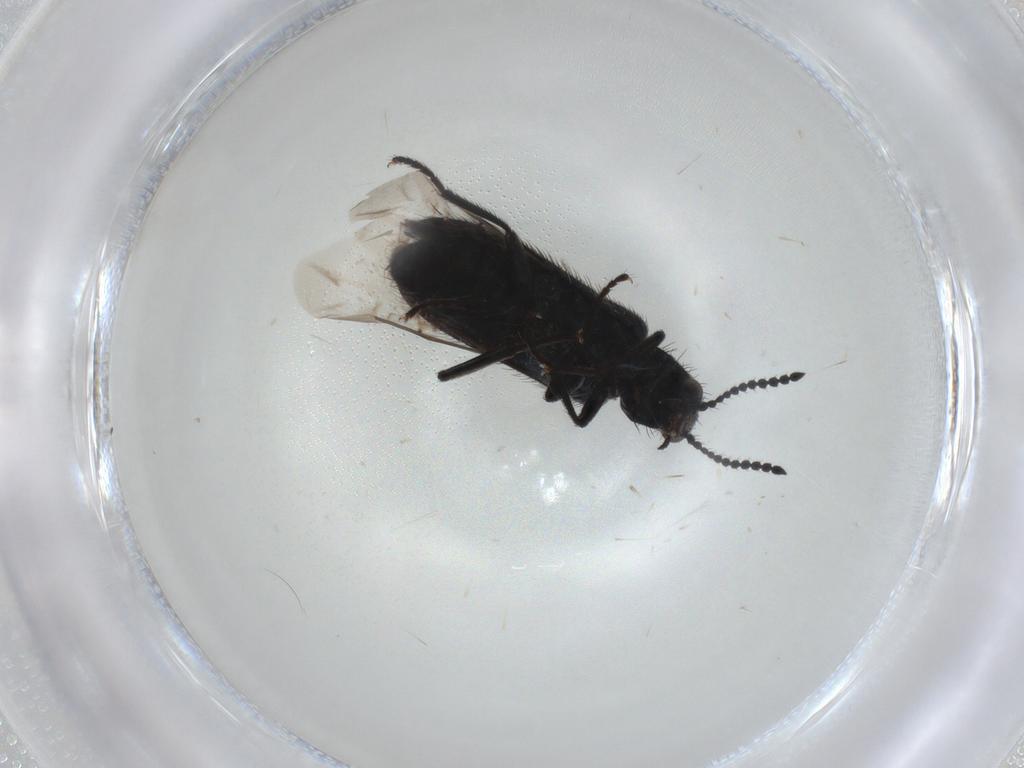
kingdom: Animalia
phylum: Arthropoda
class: Insecta
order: Coleoptera
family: Melyridae
